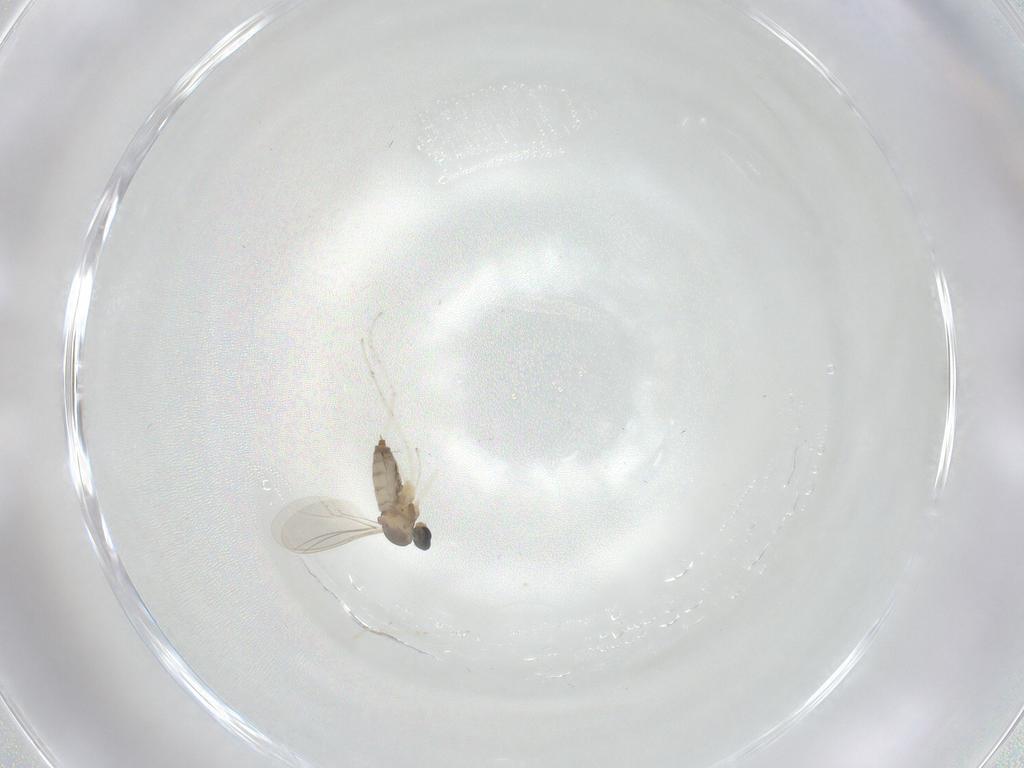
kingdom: Animalia
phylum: Arthropoda
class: Insecta
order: Diptera
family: Cecidomyiidae
